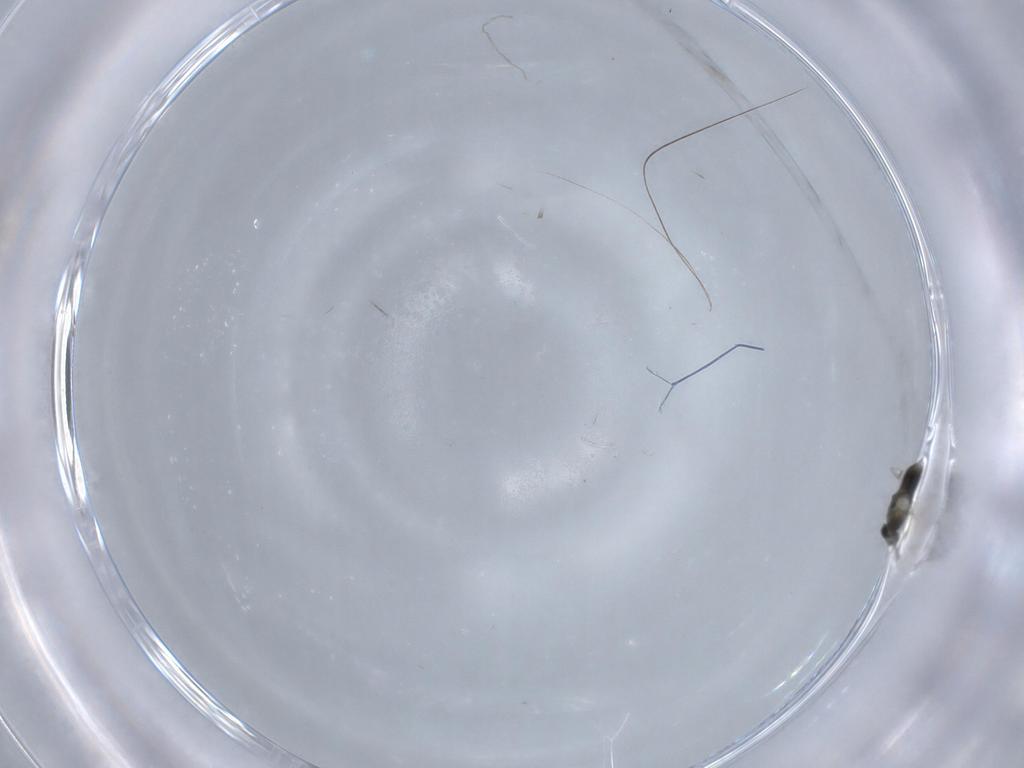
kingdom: Animalia
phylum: Arthropoda
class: Insecta
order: Hymenoptera
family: Aphelinidae
